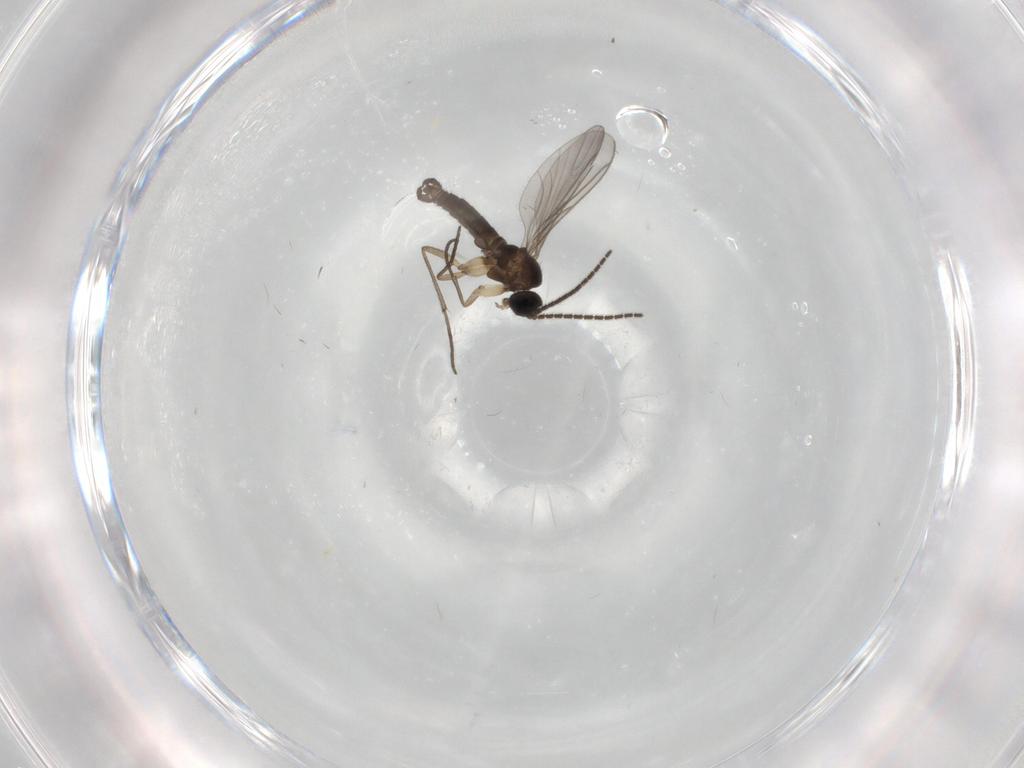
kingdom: Animalia
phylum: Arthropoda
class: Insecta
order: Diptera
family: Sciaridae
